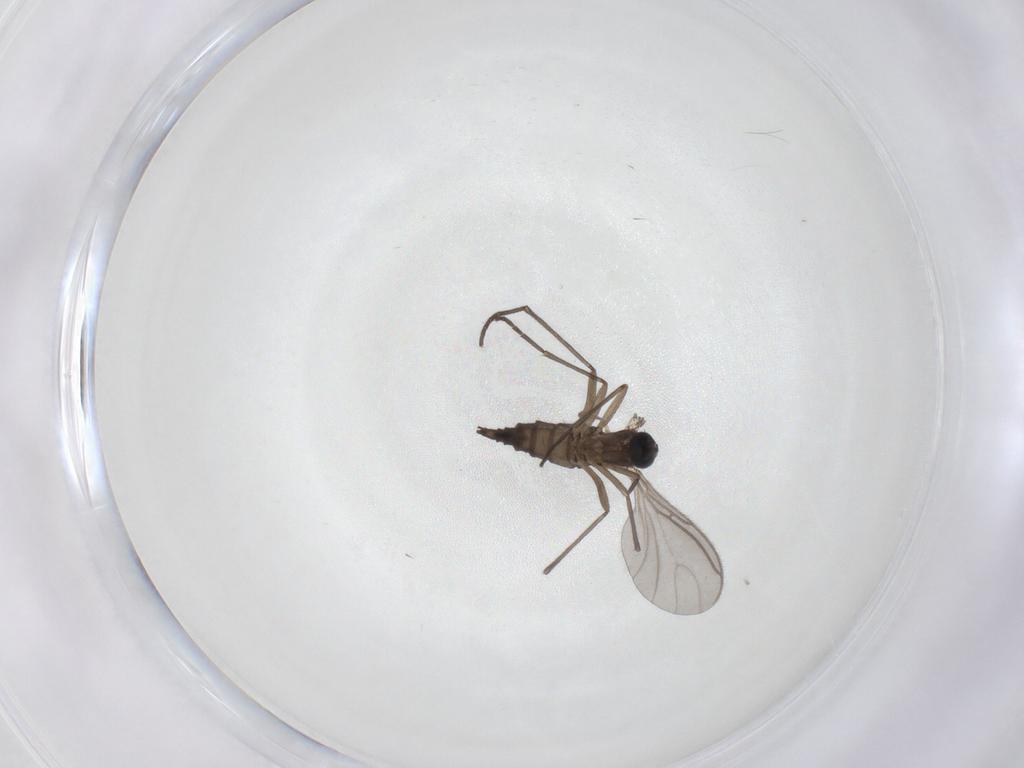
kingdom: Animalia
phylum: Arthropoda
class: Insecta
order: Diptera
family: Sciaridae
